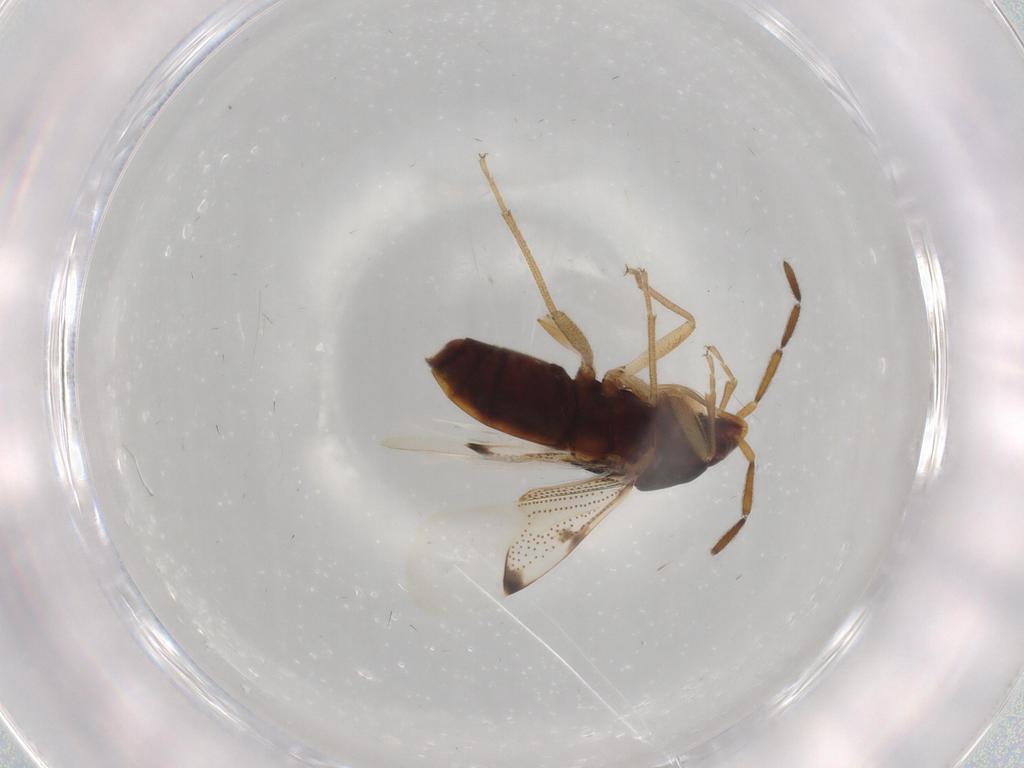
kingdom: Animalia
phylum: Arthropoda
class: Insecta
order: Hemiptera
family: Rhyparochromidae
